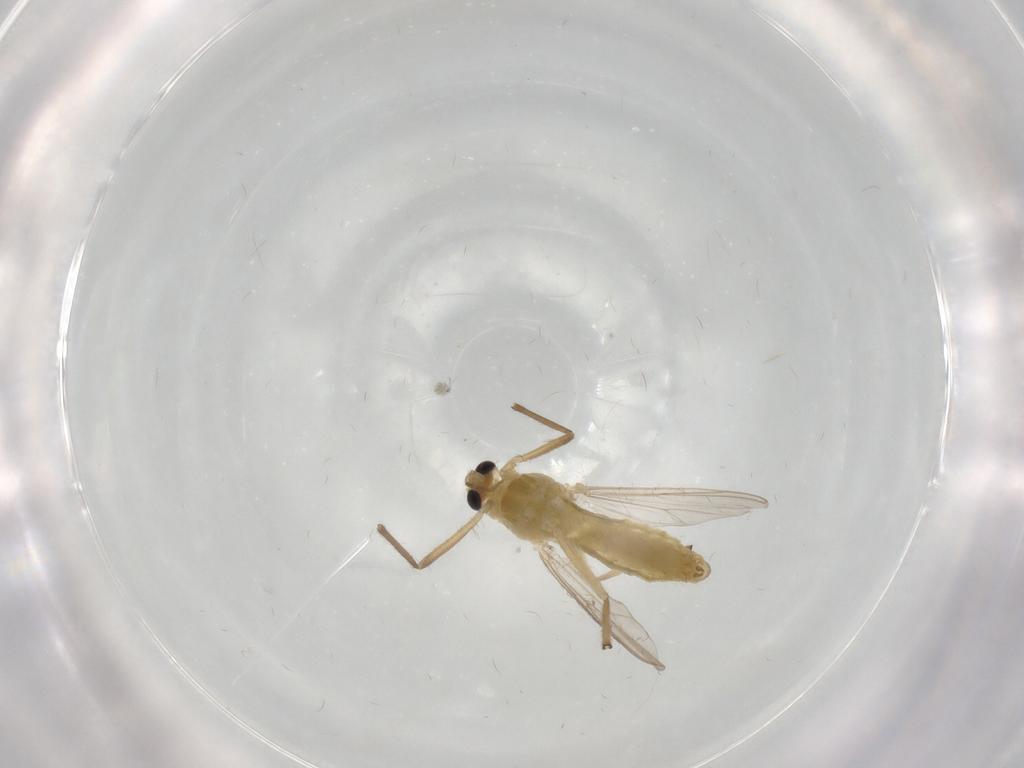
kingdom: Animalia
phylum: Arthropoda
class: Insecta
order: Diptera
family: Chironomidae
